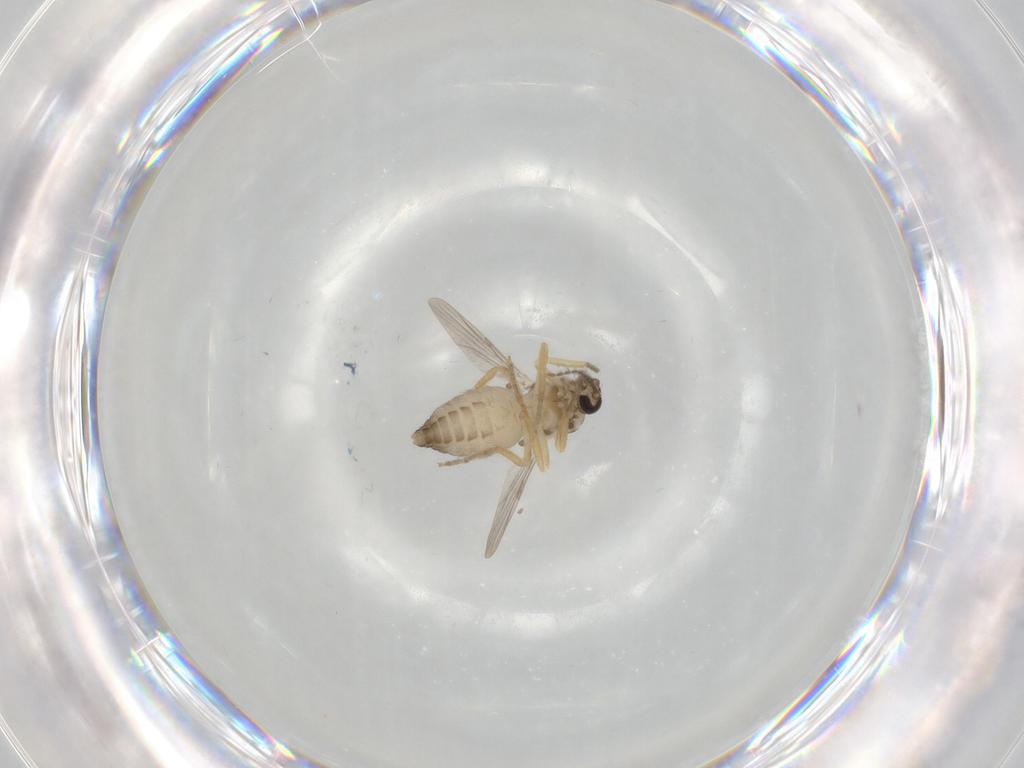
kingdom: Animalia
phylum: Arthropoda
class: Insecta
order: Diptera
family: Ceratopogonidae
